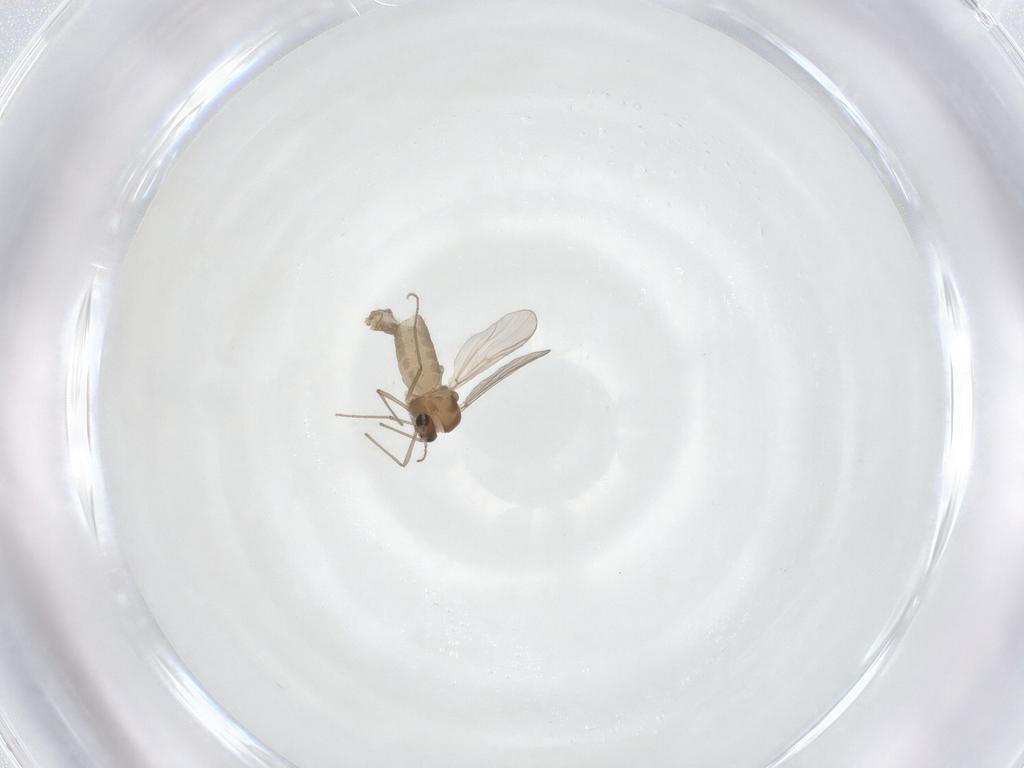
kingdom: Animalia
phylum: Arthropoda
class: Insecta
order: Diptera
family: Chironomidae
